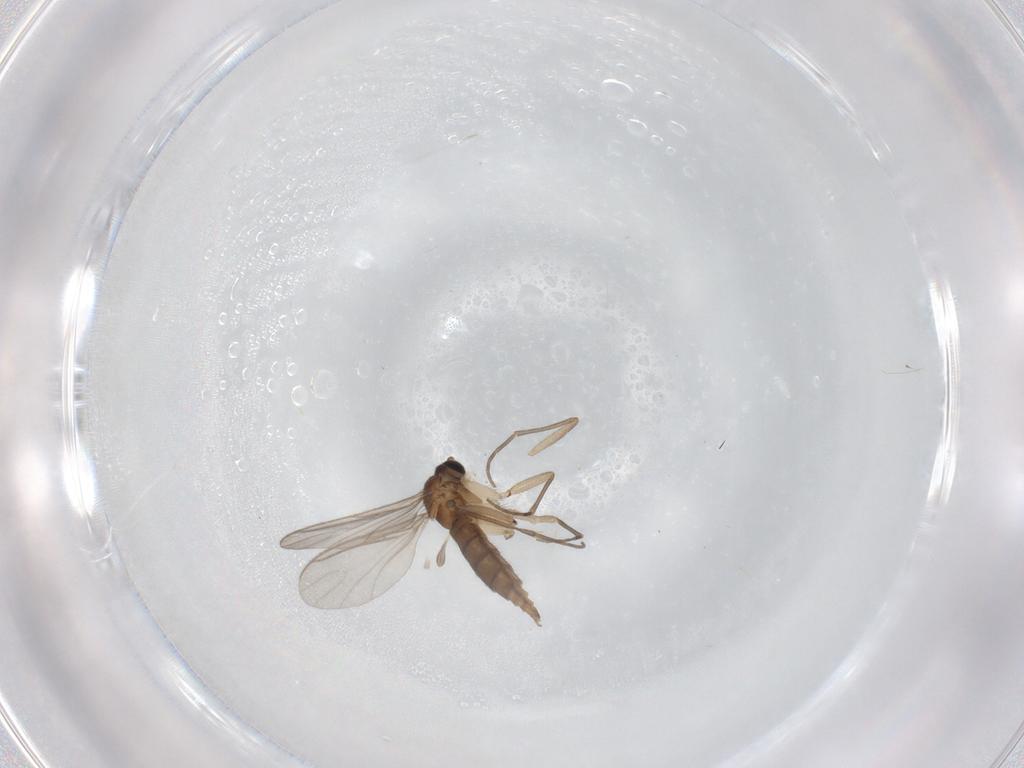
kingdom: Animalia
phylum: Arthropoda
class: Insecta
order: Diptera
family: Sciaridae
